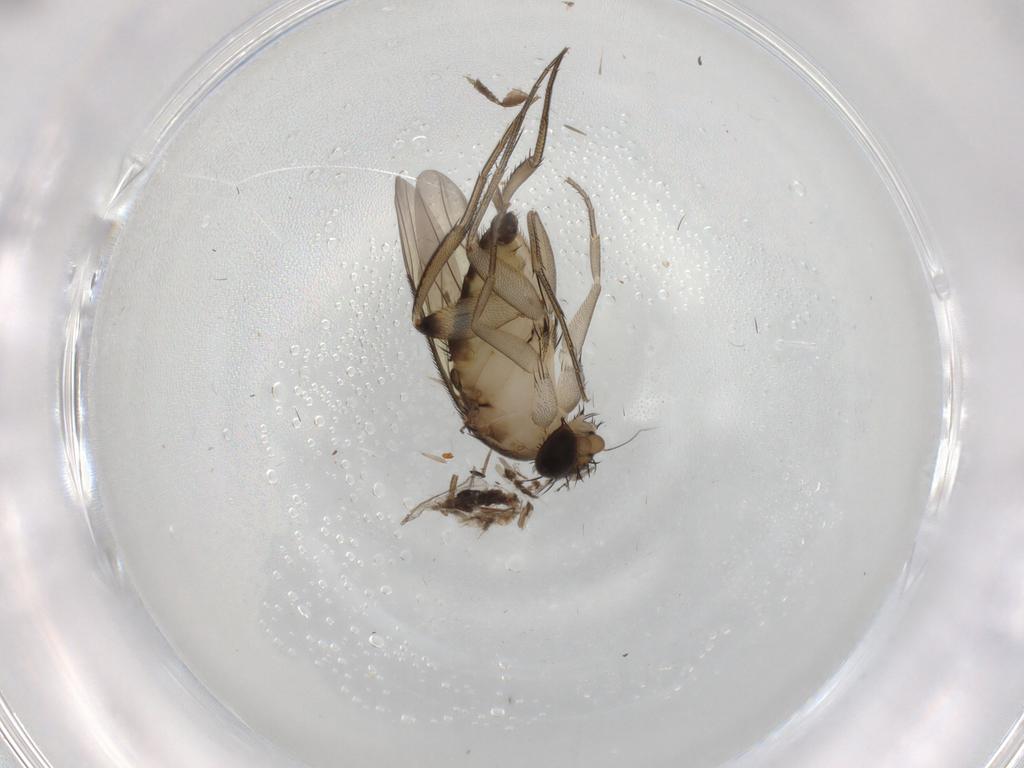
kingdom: Animalia
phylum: Arthropoda
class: Insecta
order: Diptera
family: Phoridae
